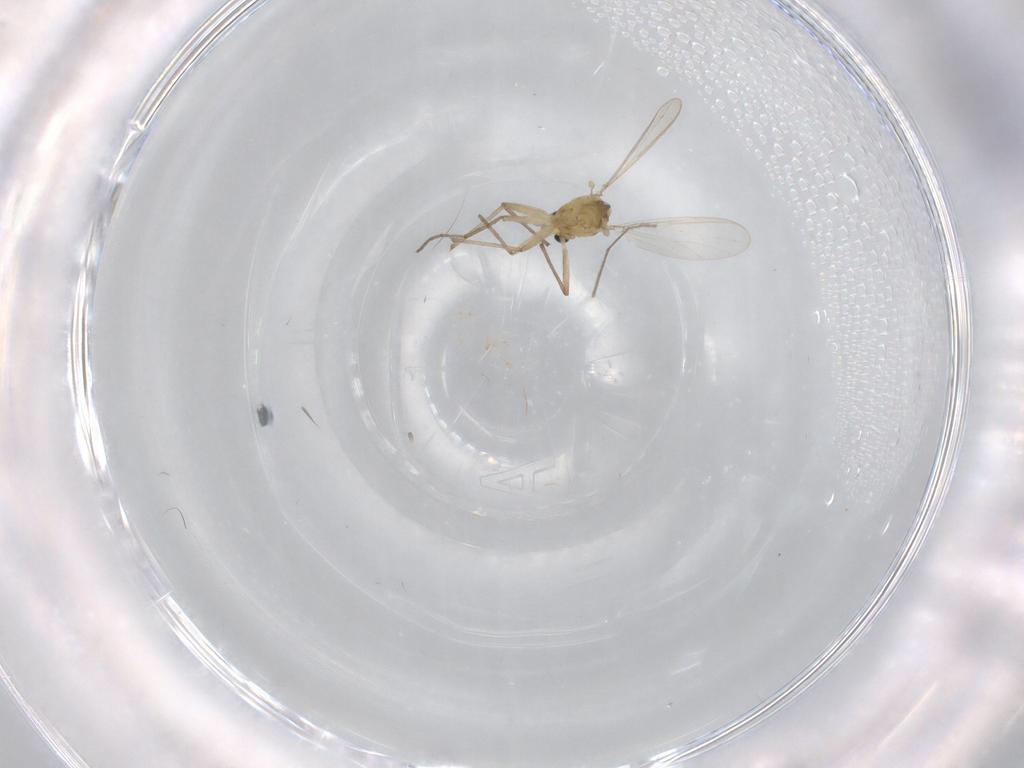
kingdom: Animalia
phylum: Arthropoda
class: Insecta
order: Diptera
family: Chironomidae
